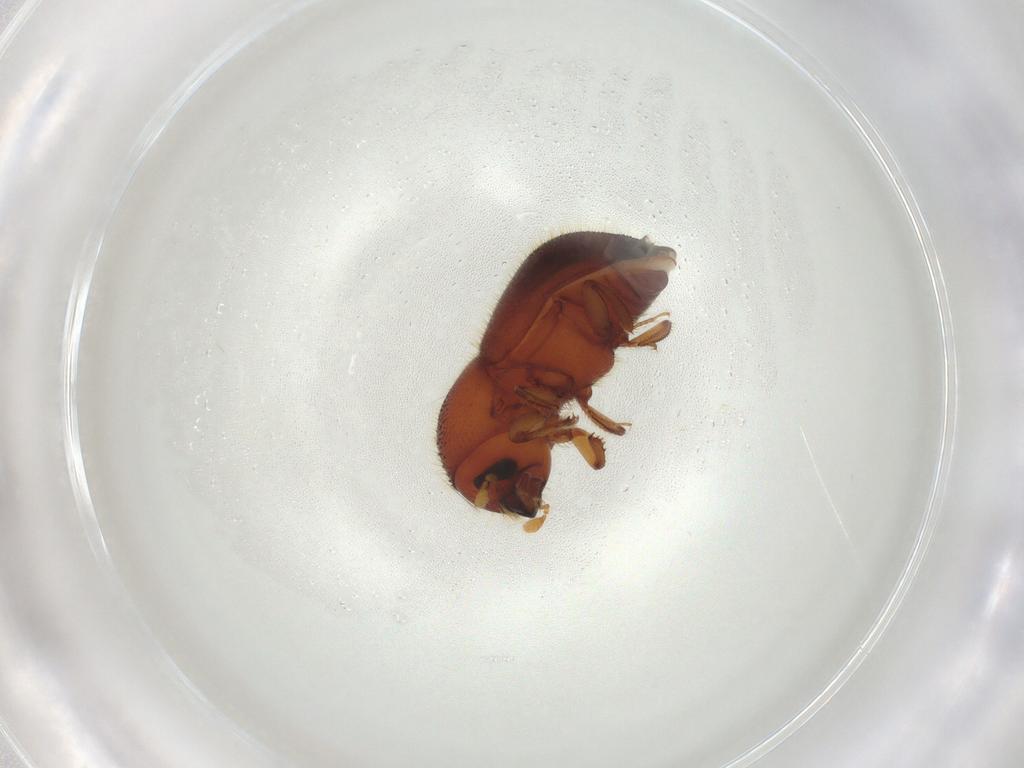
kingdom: Animalia
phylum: Arthropoda
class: Insecta
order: Coleoptera
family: Curculionidae
